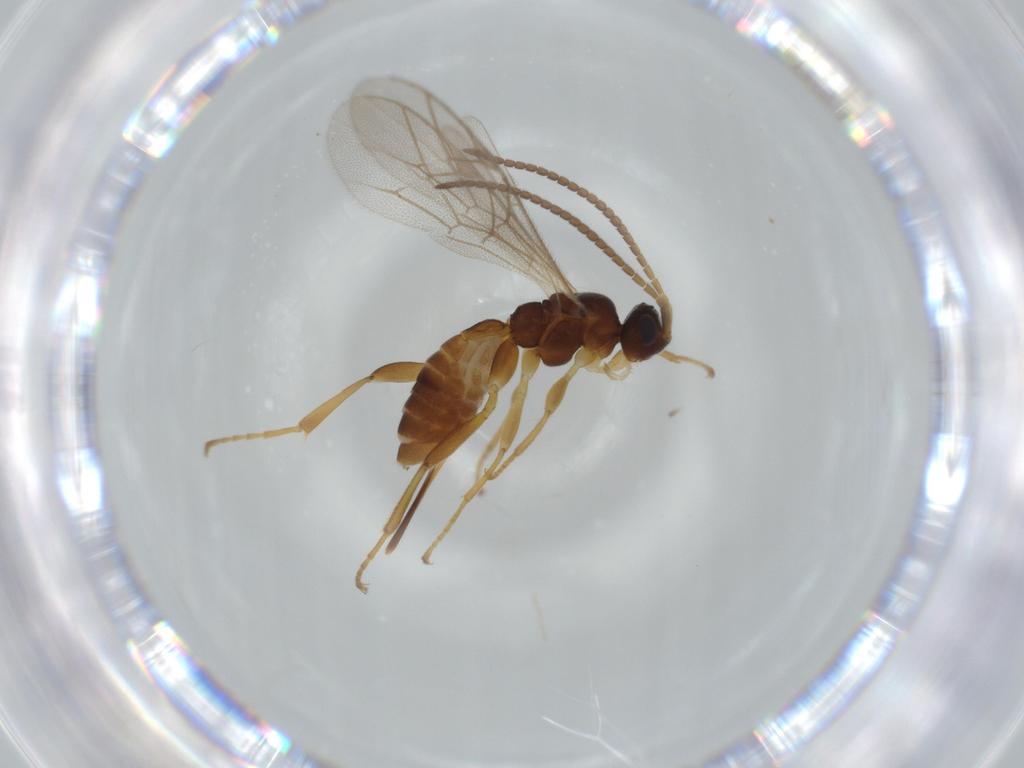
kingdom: Animalia
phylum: Arthropoda
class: Insecta
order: Hymenoptera
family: Ichneumonidae
